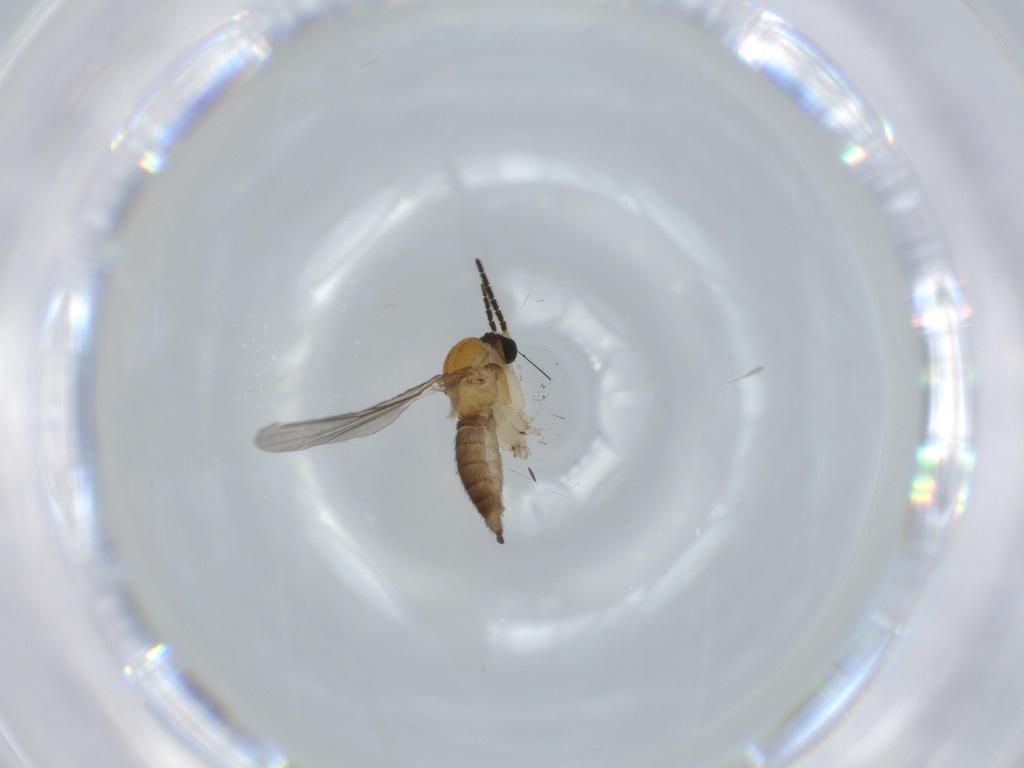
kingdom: Animalia
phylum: Arthropoda
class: Insecta
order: Diptera
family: Sciaridae
